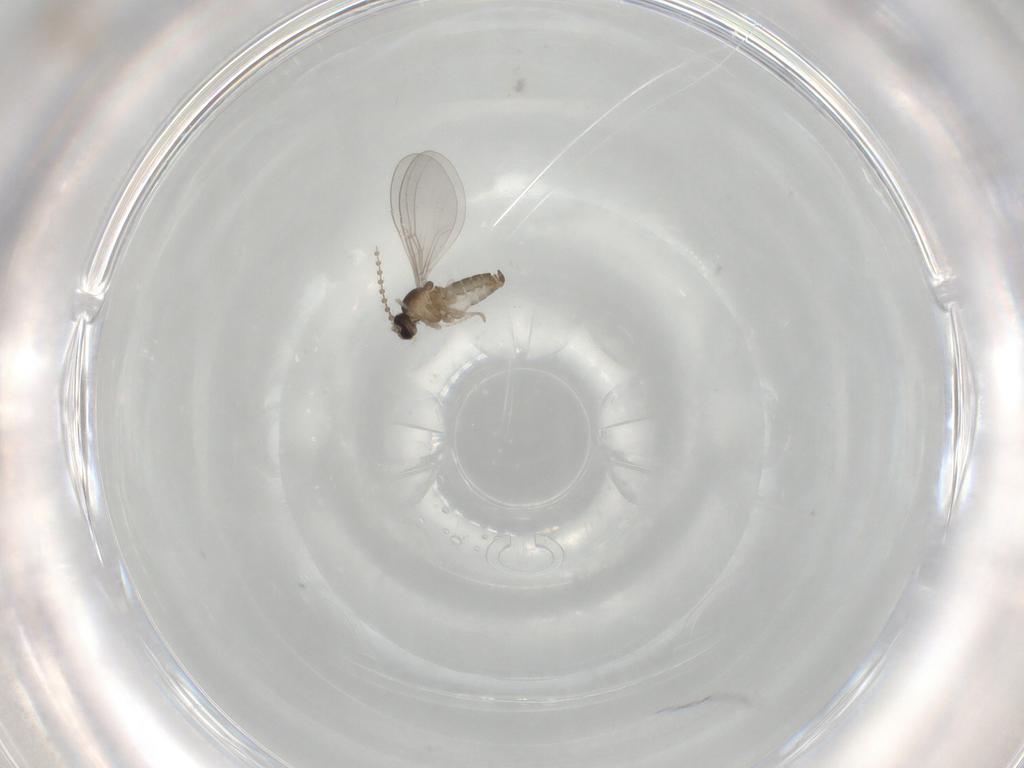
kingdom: Animalia
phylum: Arthropoda
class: Insecta
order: Diptera
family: Cecidomyiidae
